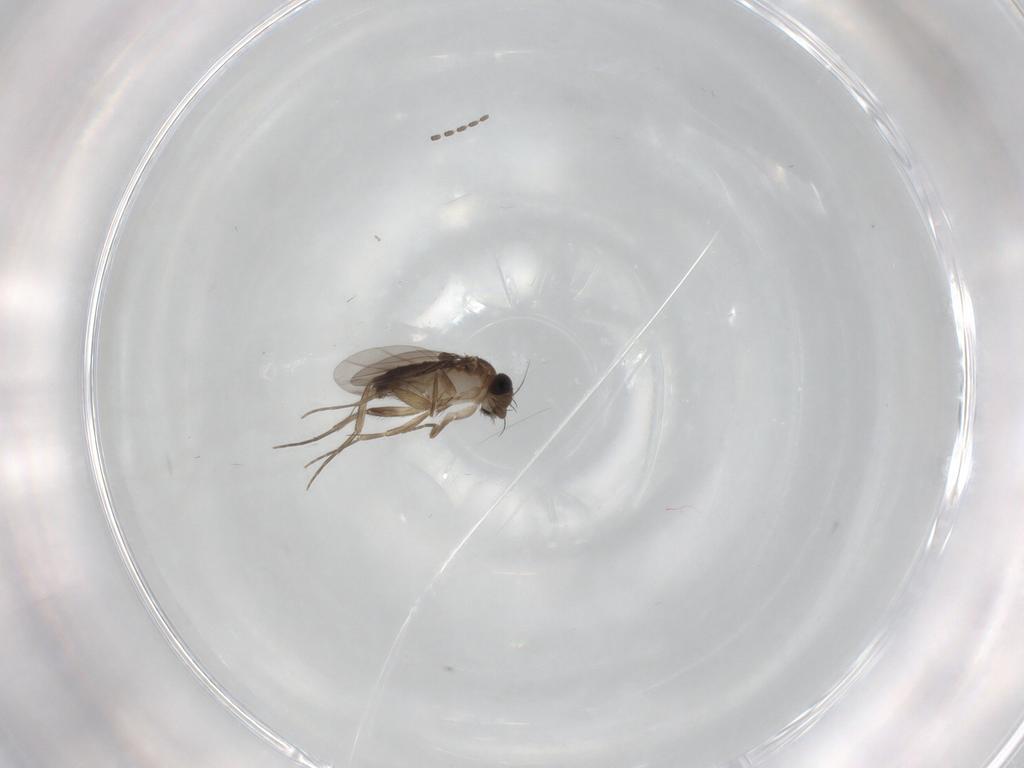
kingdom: Animalia
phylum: Arthropoda
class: Insecta
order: Diptera
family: Phoridae
